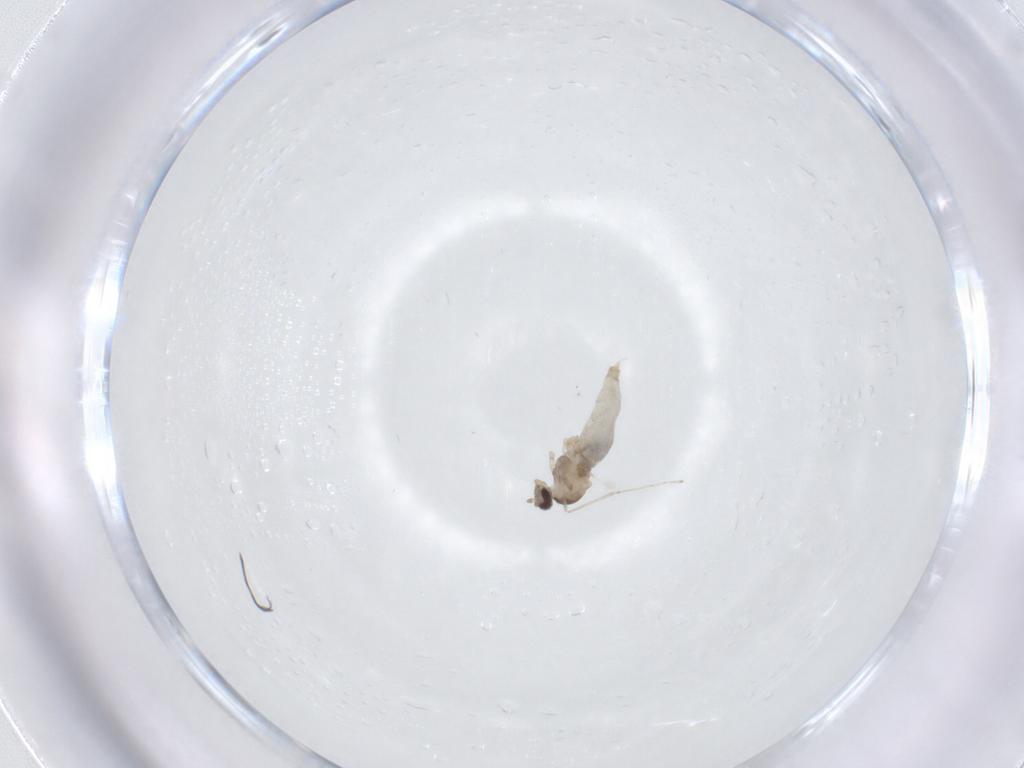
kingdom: Animalia
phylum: Arthropoda
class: Insecta
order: Diptera
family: Cecidomyiidae
